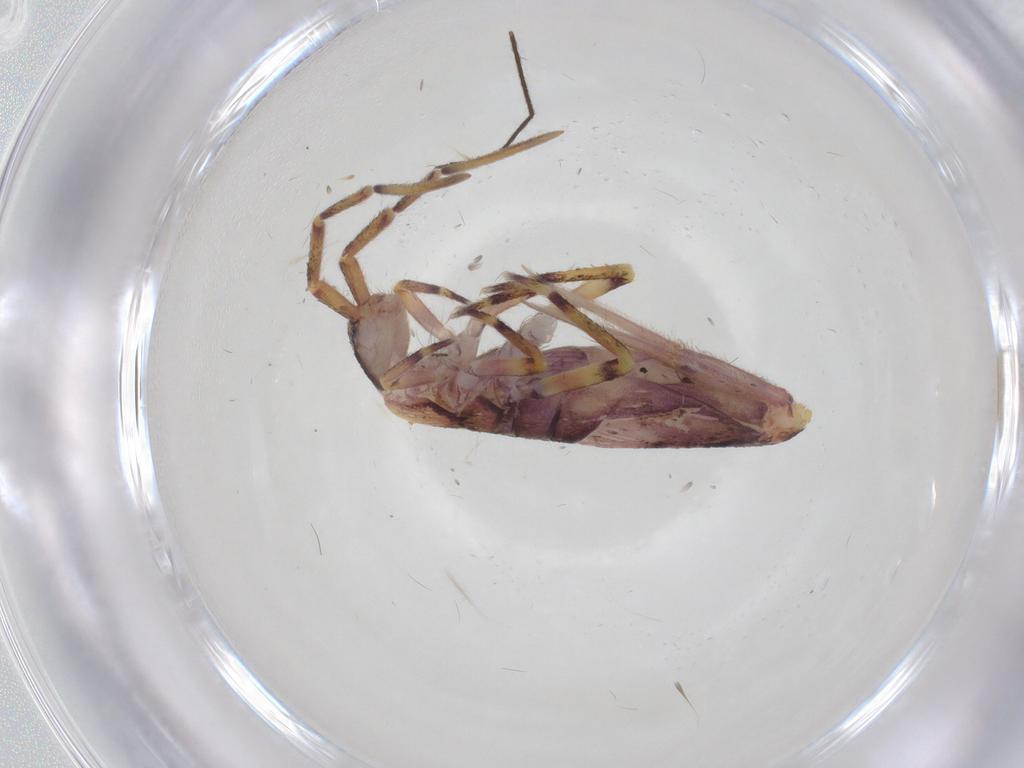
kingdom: Animalia
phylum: Arthropoda
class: Collembola
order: Entomobryomorpha
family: Entomobryidae
